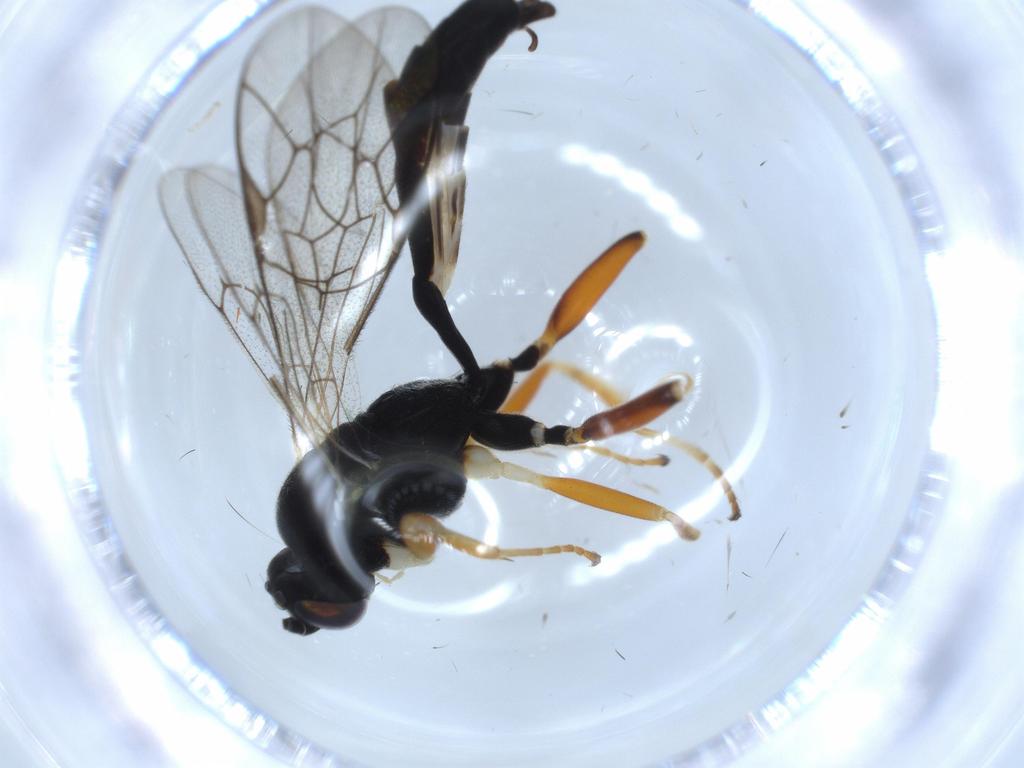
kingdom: Animalia
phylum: Arthropoda
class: Insecta
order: Hymenoptera
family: Ichneumonidae
